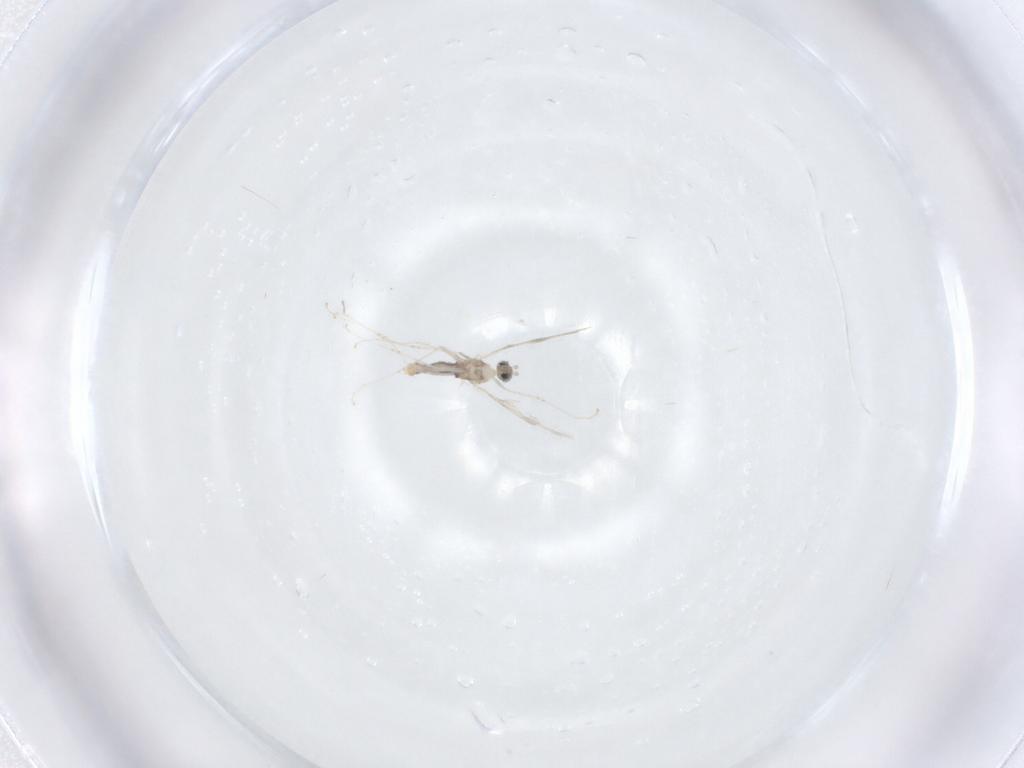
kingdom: Animalia
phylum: Arthropoda
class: Insecta
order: Diptera
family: Cecidomyiidae
